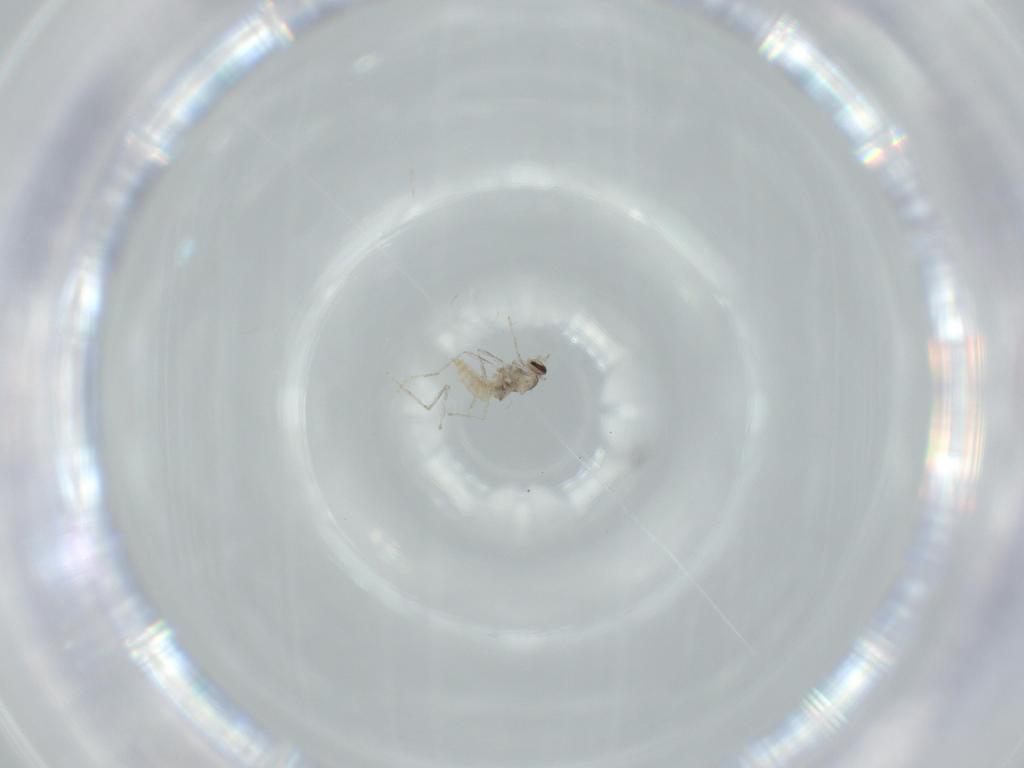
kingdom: Animalia
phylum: Arthropoda
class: Insecta
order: Diptera
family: Cecidomyiidae
